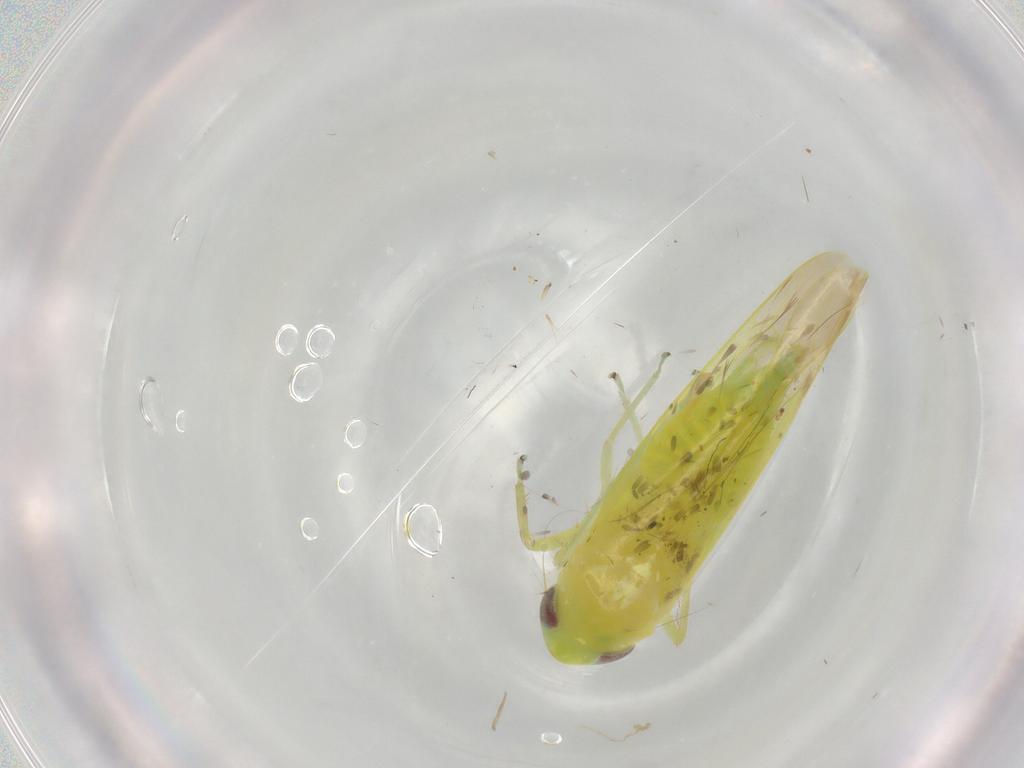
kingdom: Animalia
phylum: Arthropoda
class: Insecta
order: Hemiptera
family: Cicadellidae
